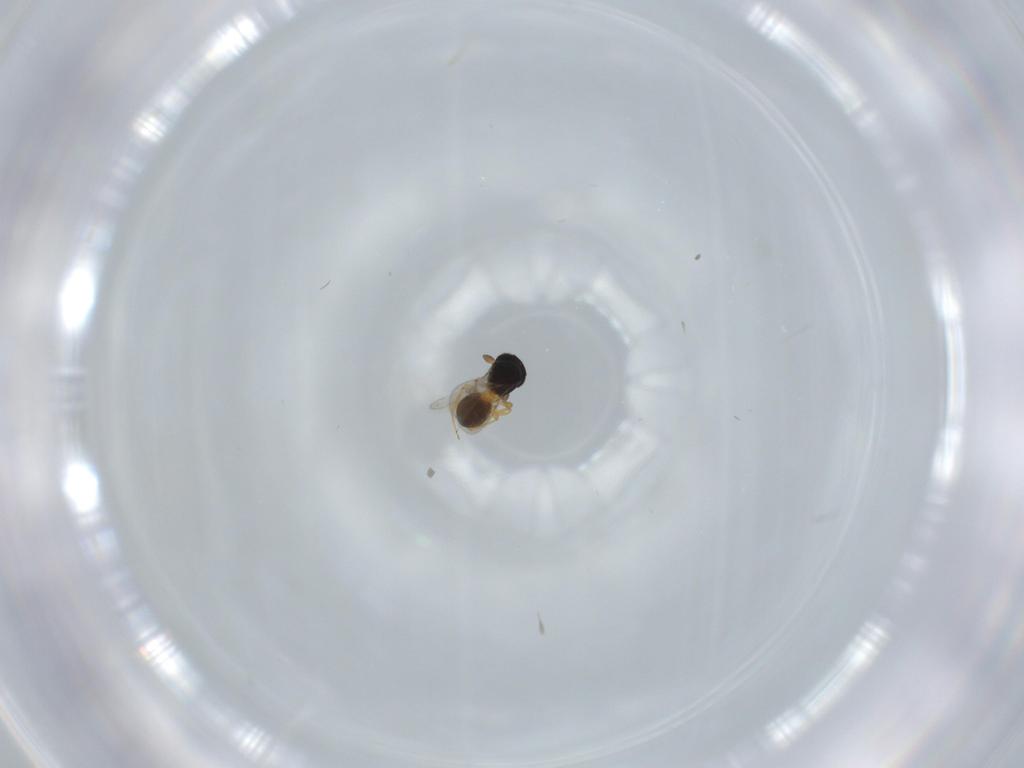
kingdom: Animalia
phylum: Arthropoda
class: Insecta
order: Hymenoptera
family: Scelionidae
